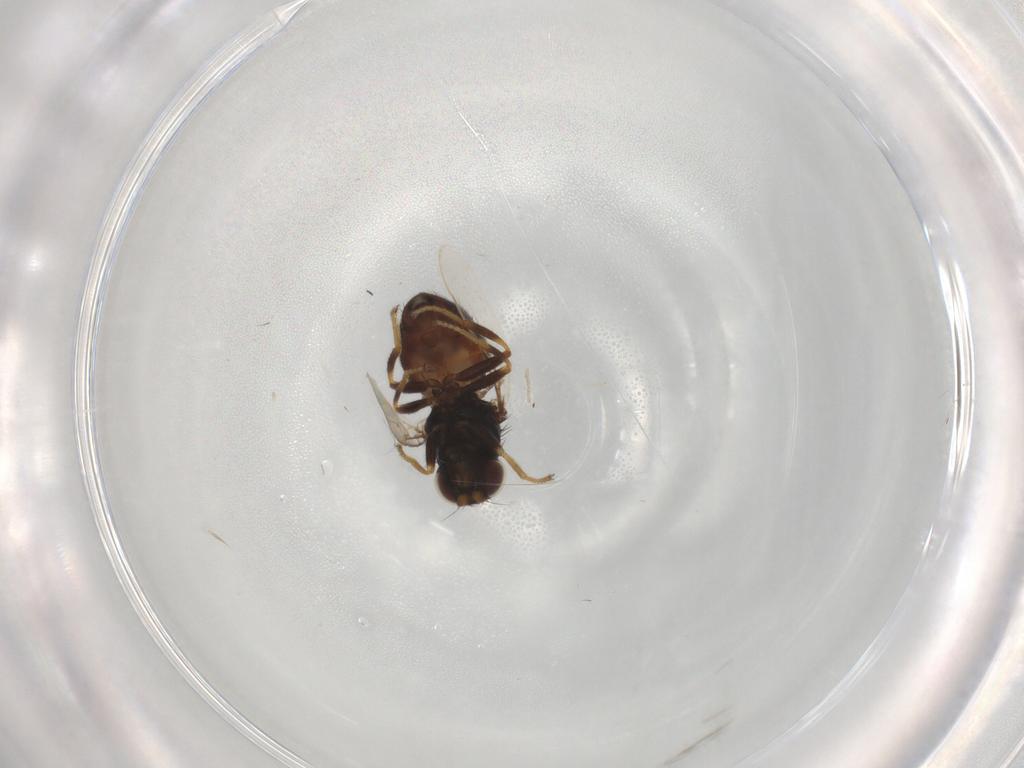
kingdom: Animalia
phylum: Arthropoda
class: Insecta
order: Diptera
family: Chloropidae
